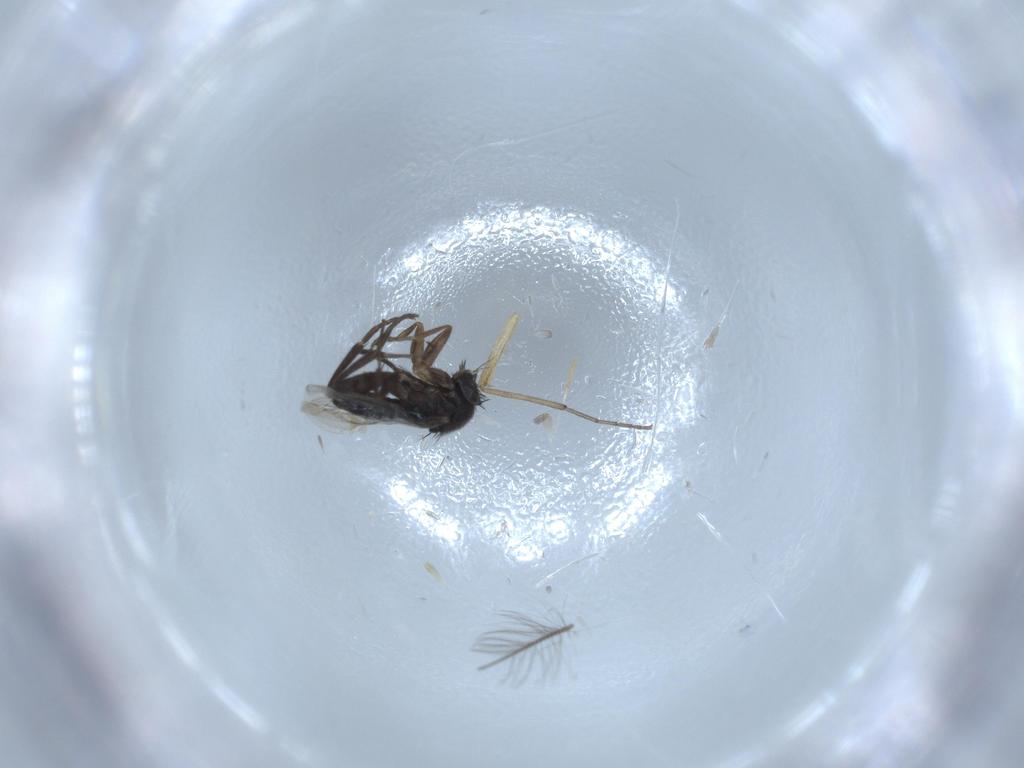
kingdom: Animalia
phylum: Arthropoda
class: Insecta
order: Diptera
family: Phoridae
